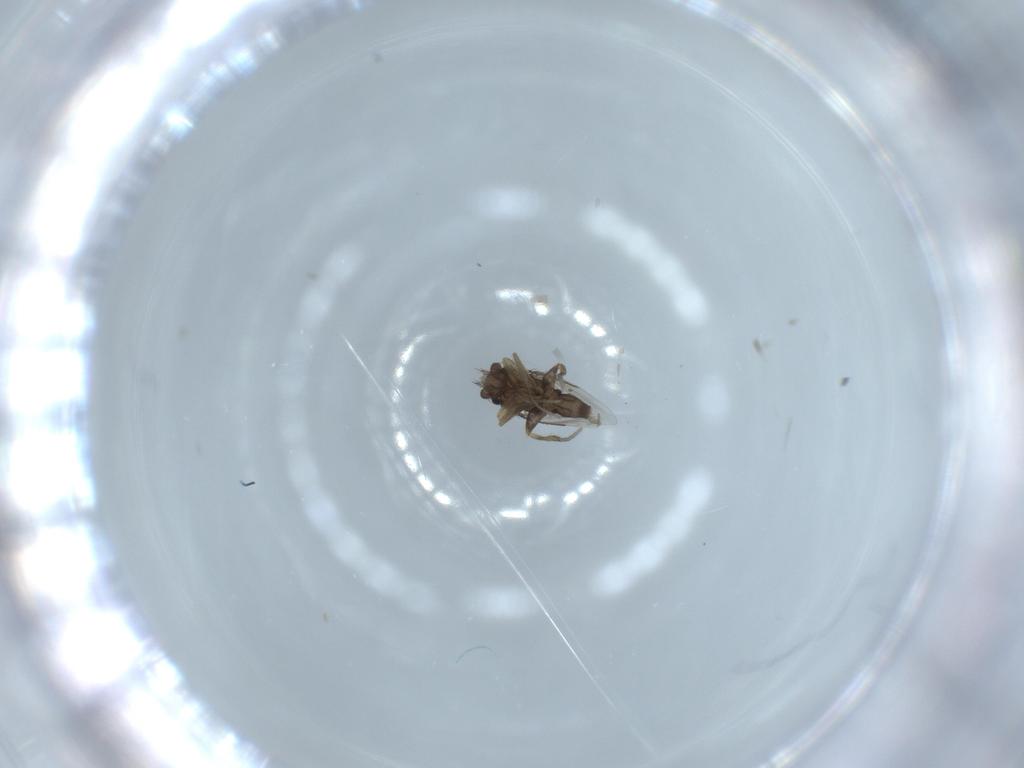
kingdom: Animalia
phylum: Arthropoda
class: Insecta
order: Diptera
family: Phoridae
